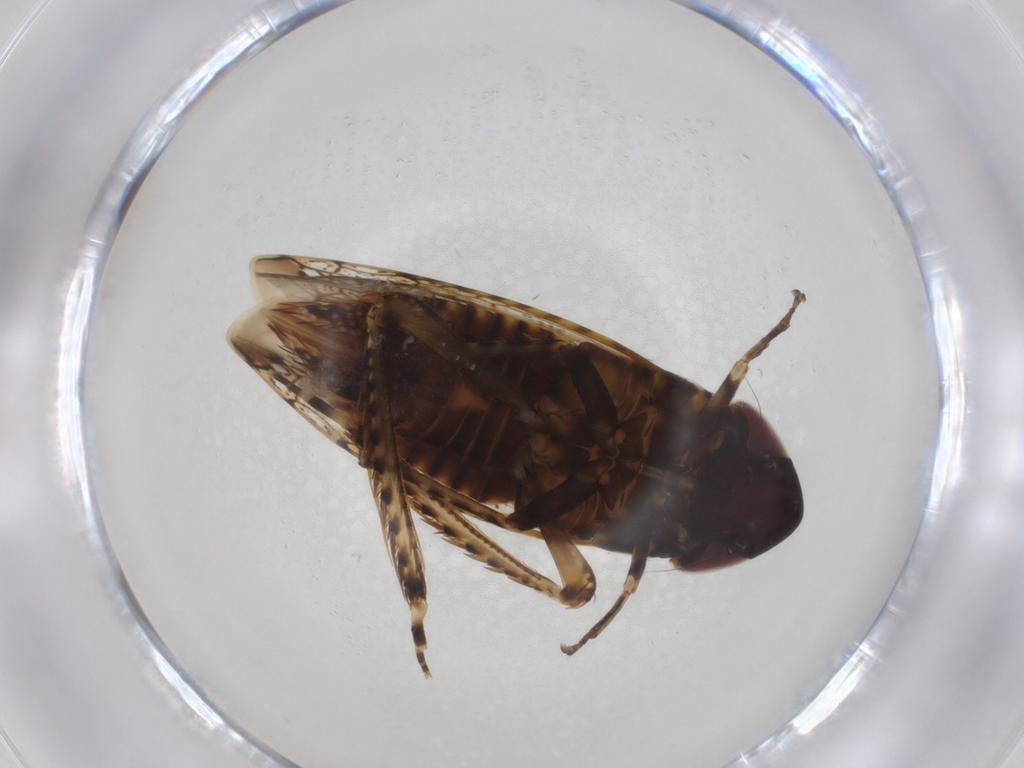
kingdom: Animalia
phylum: Arthropoda
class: Insecta
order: Hemiptera
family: Cicadellidae
